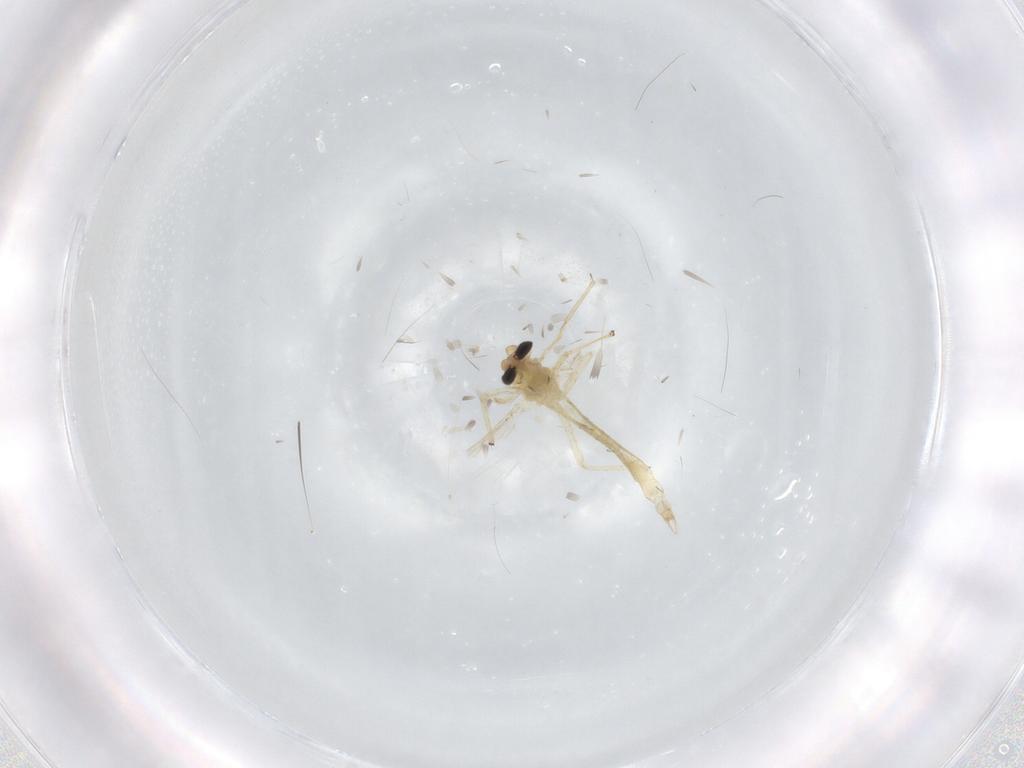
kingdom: Animalia
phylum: Arthropoda
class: Insecta
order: Diptera
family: Chironomidae
